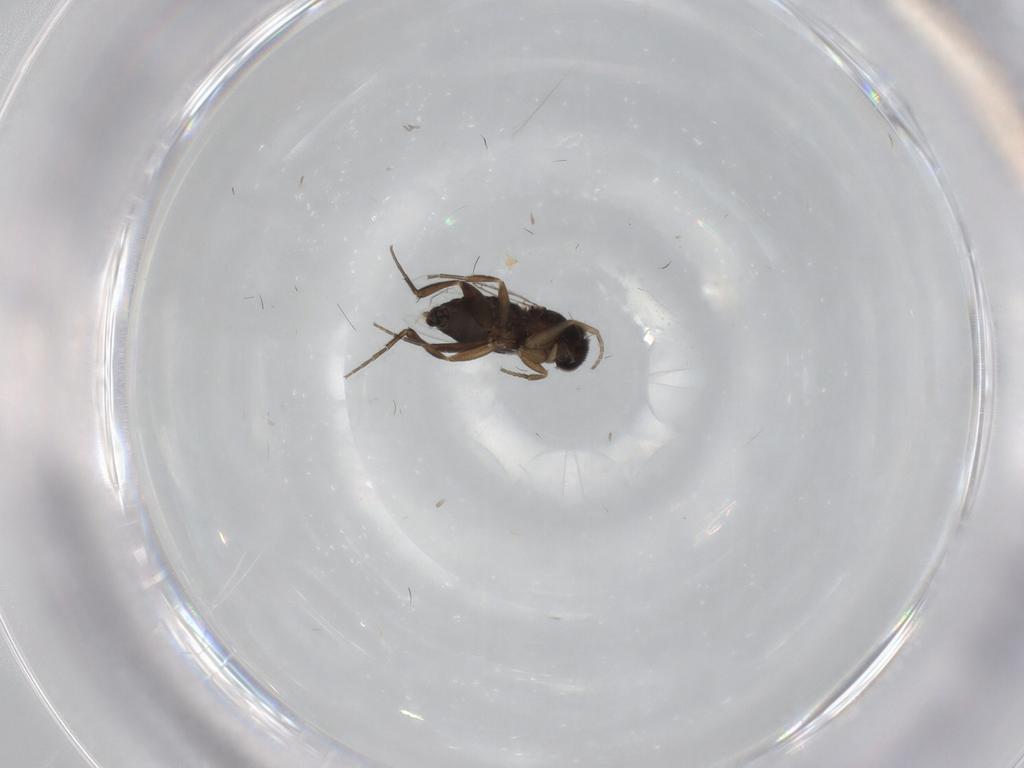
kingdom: Animalia
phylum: Arthropoda
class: Insecta
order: Diptera
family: Phoridae
